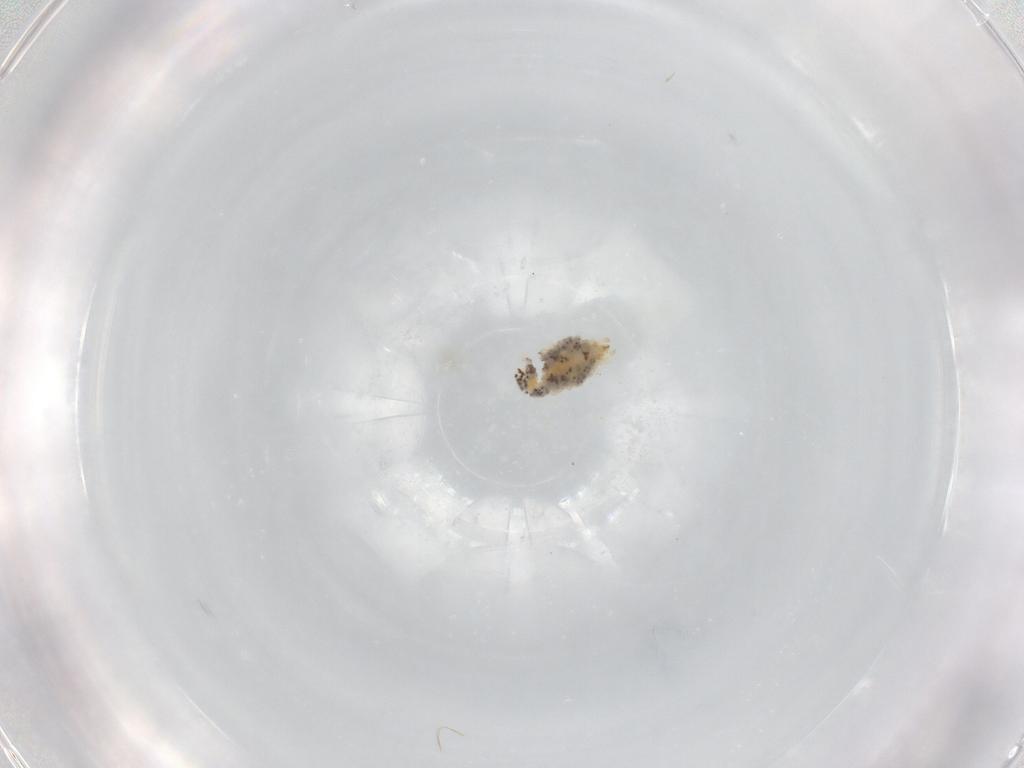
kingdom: Animalia
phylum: Arthropoda
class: Arachnida
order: Trombidiformes
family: Erythraeidae
